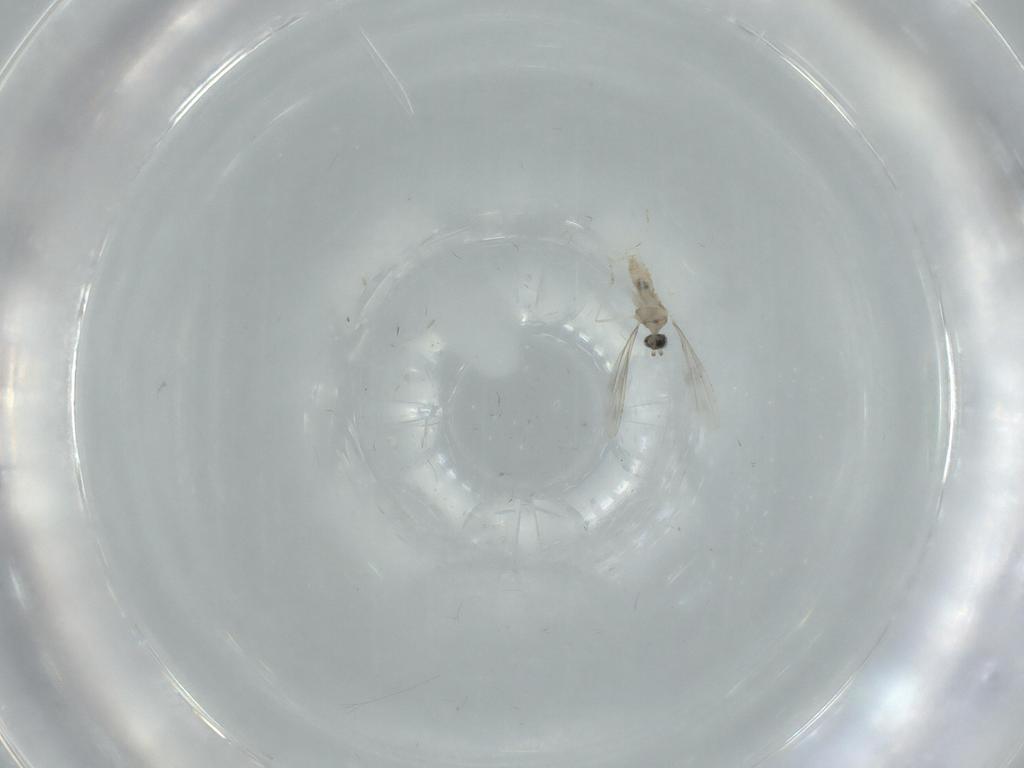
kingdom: Animalia
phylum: Arthropoda
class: Insecta
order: Diptera
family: Cecidomyiidae
